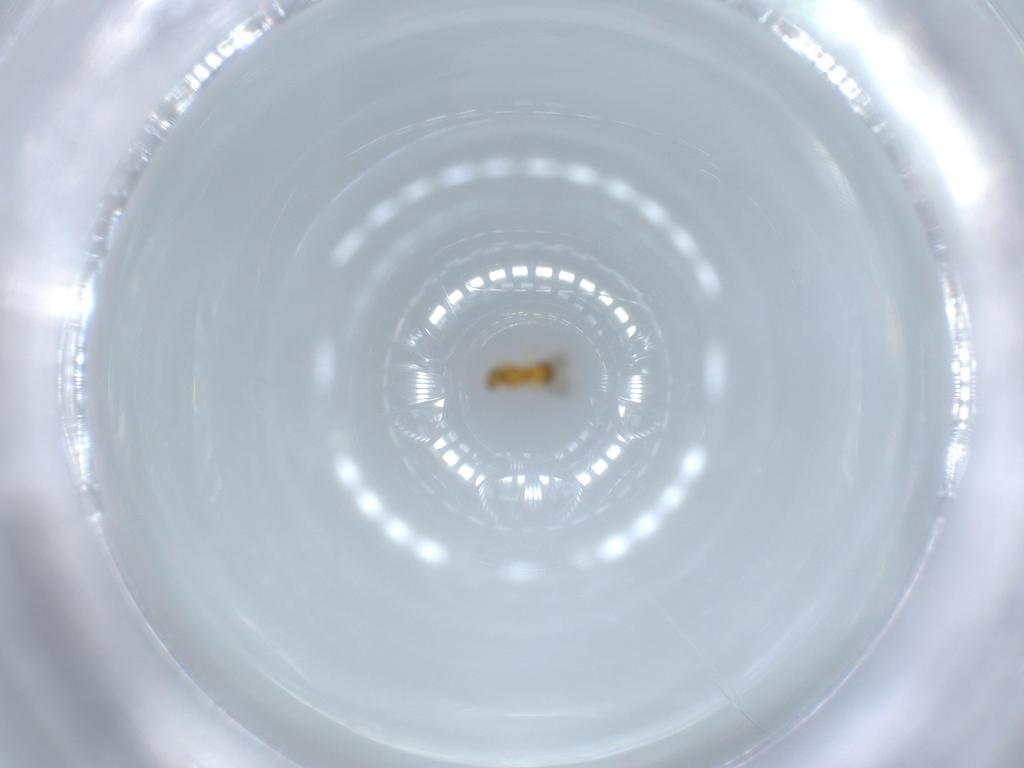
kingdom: Animalia
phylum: Arthropoda
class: Insecta
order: Hymenoptera
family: Platygastridae
